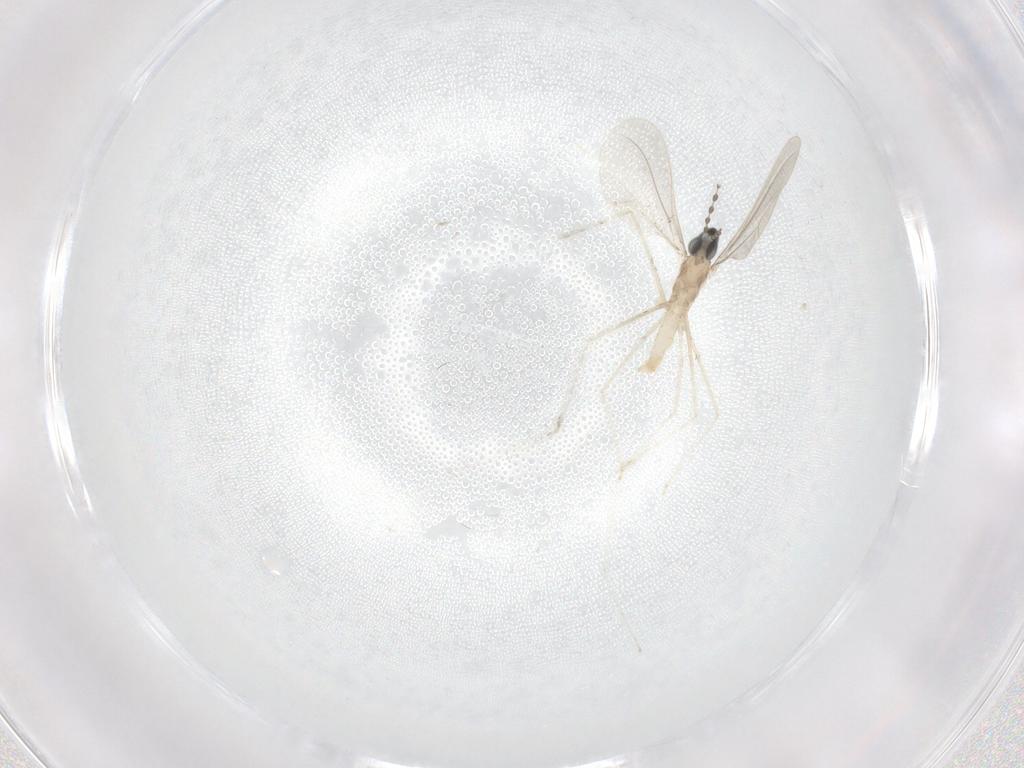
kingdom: Animalia
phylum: Arthropoda
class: Insecta
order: Diptera
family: Cecidomyiidae
